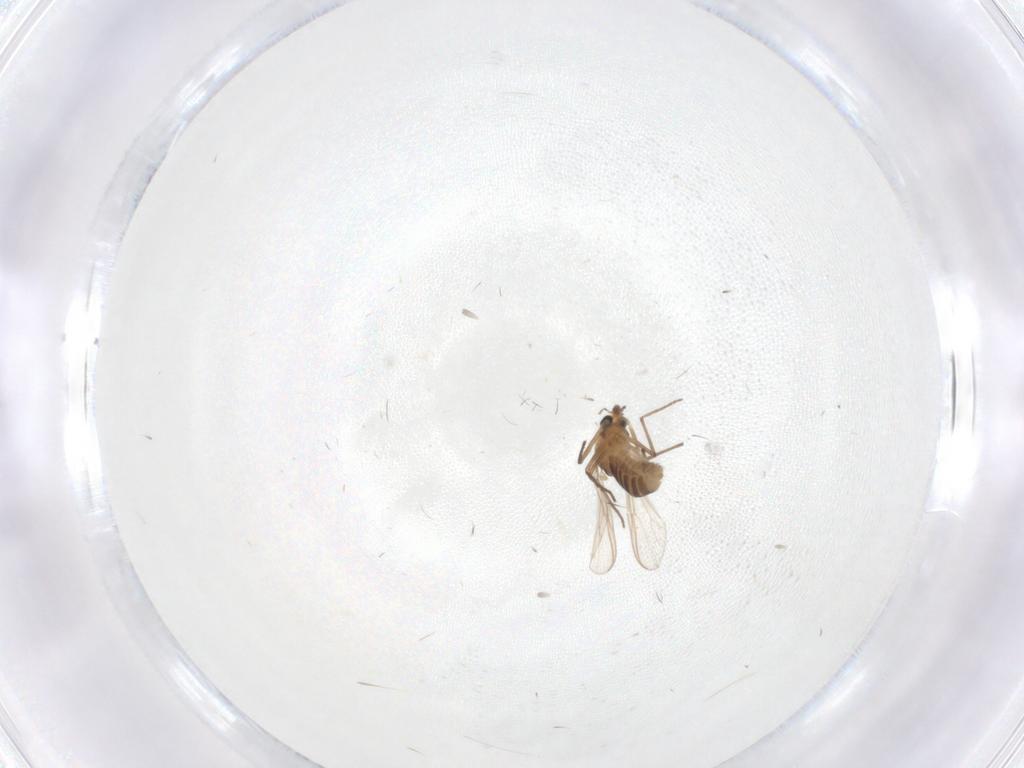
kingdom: Animalia
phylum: Arthropoda
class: Insecta
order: Diptera
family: Chironomidae
